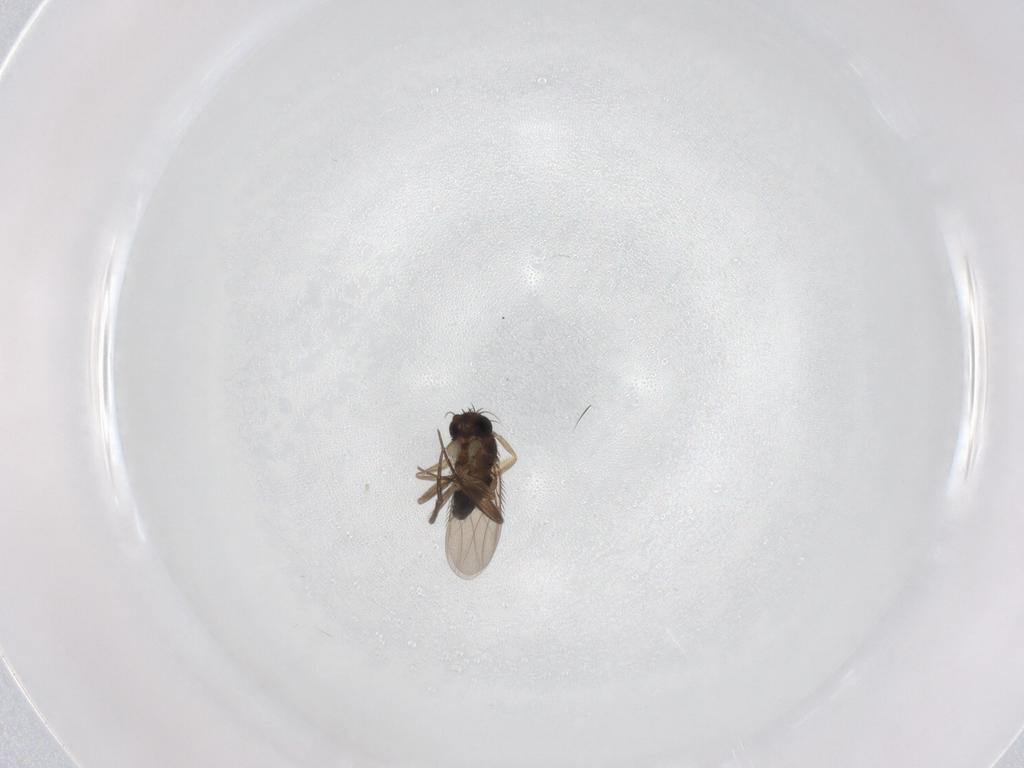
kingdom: Animalia
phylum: Arthropoda
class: Insecta
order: Diptera
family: Phoridae
